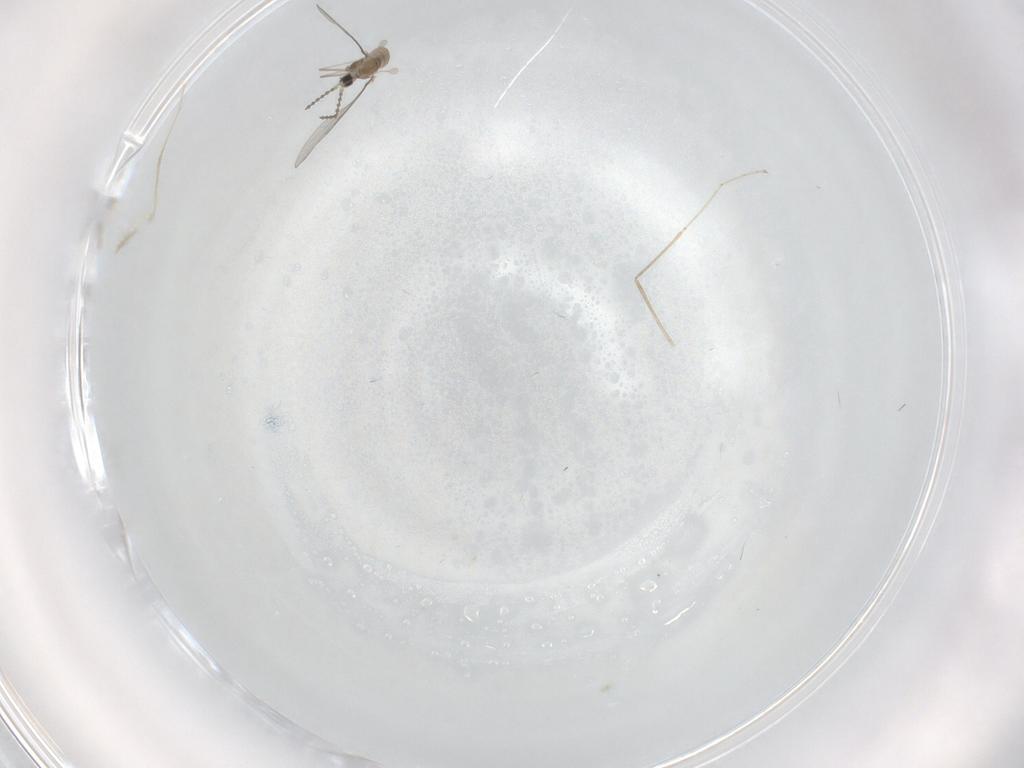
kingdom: Animalia
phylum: Arthropoda
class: Insecta
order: Diptera
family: Cecidomyiidae
